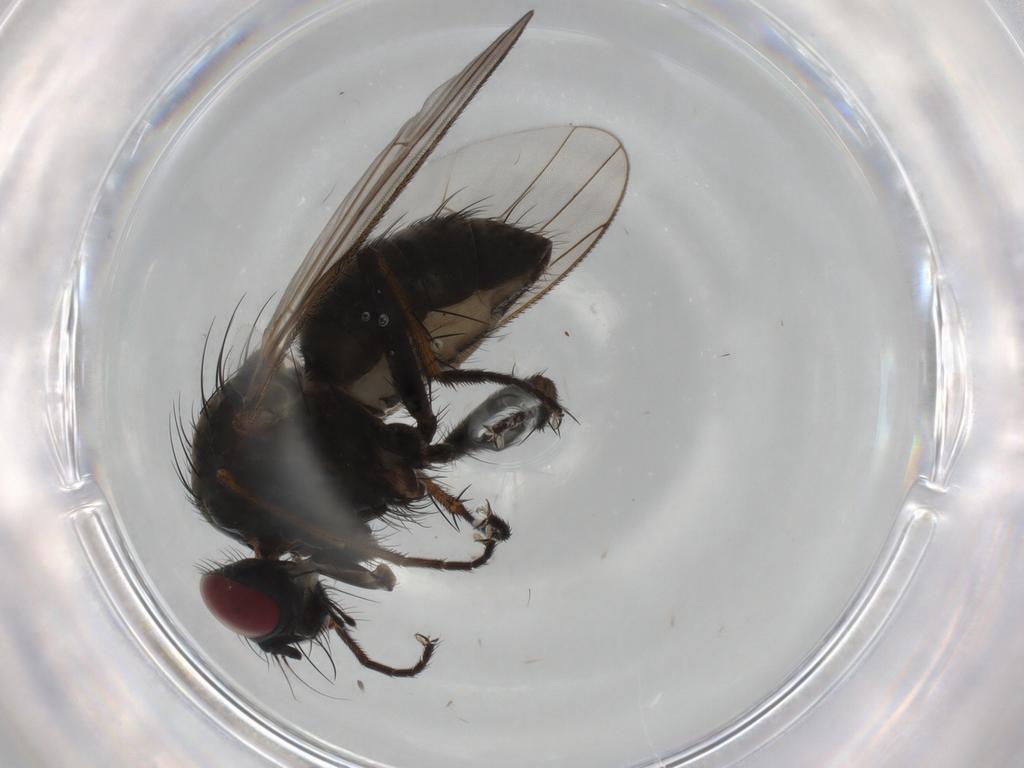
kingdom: Animalia
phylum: Arthropoda
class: Insecta
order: Diptera
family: Muscidae
